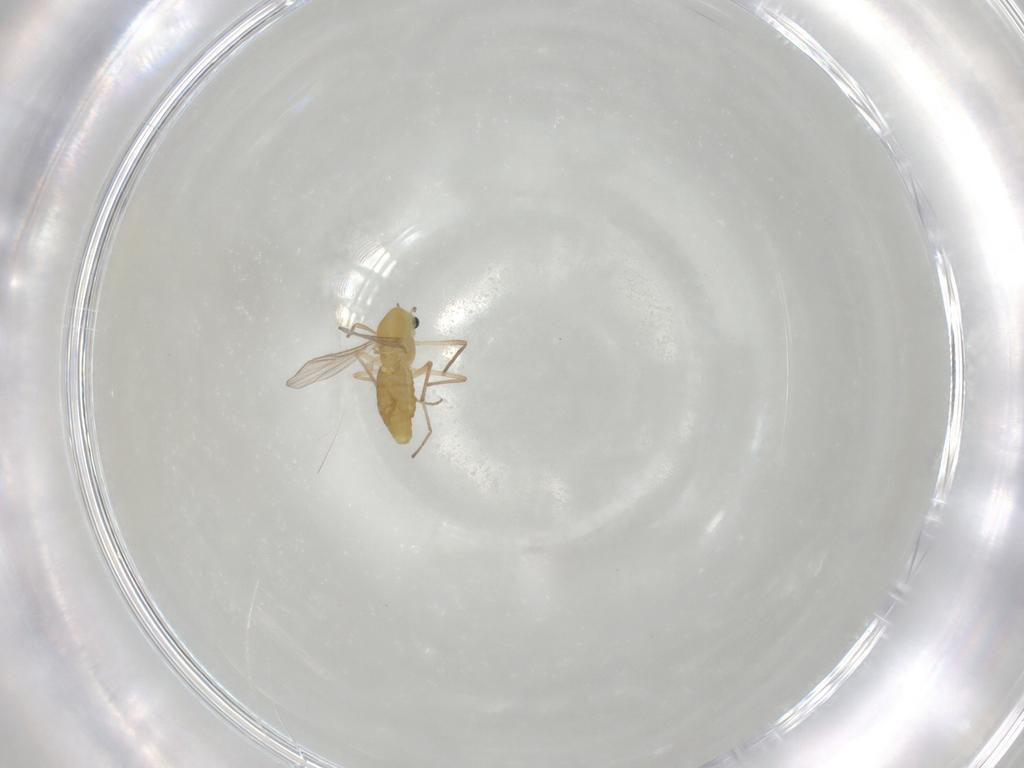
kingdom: Animalia
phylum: Arthropoda
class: Insecta
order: Diptera
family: Chironomidae
